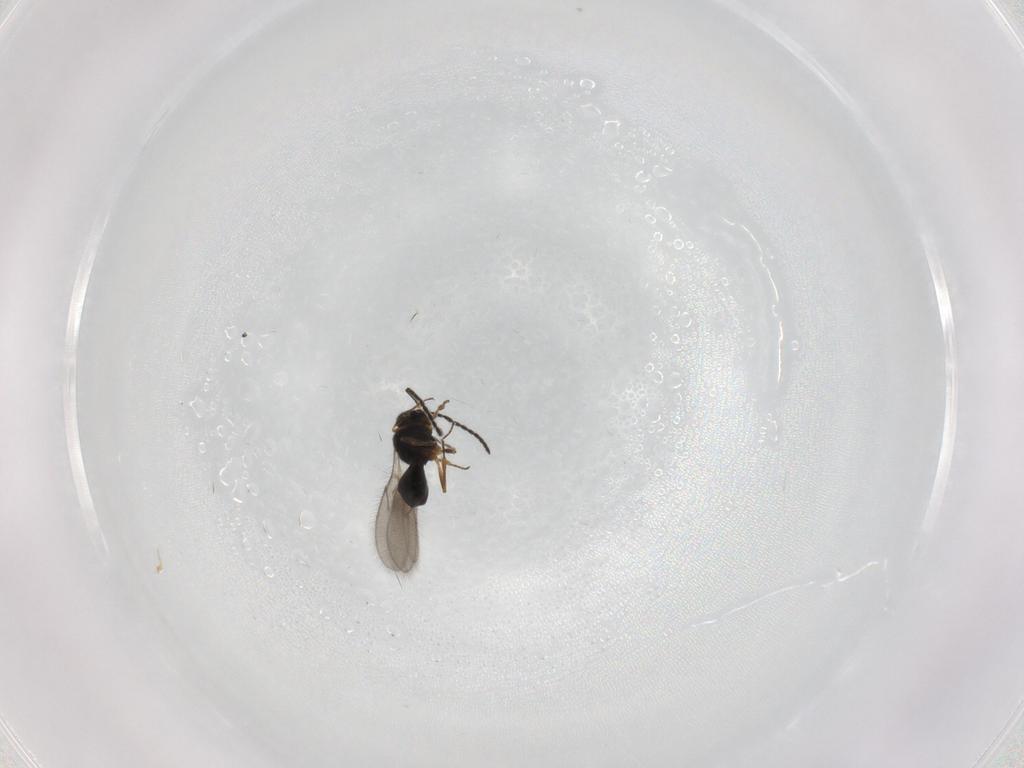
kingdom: Animalia
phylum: Arthropoda
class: Insecta
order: Hymenoptera
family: Scelionidae
